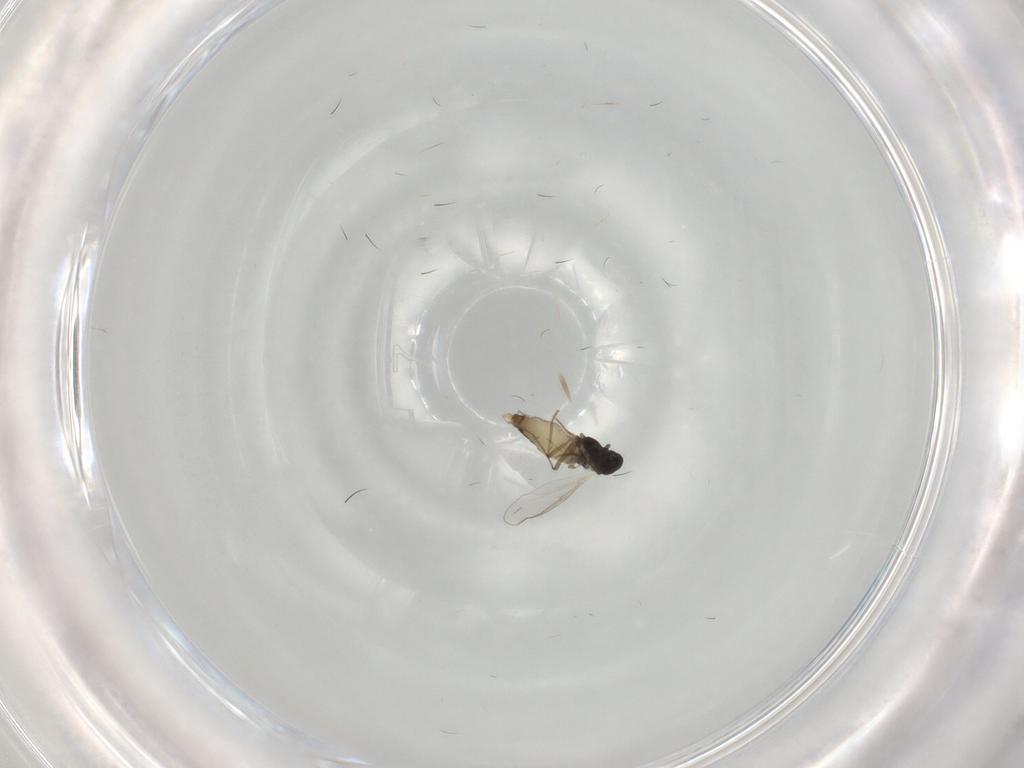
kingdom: Animalia
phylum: Arthropoda
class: Insecta
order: Diptera
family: Chironomidae
